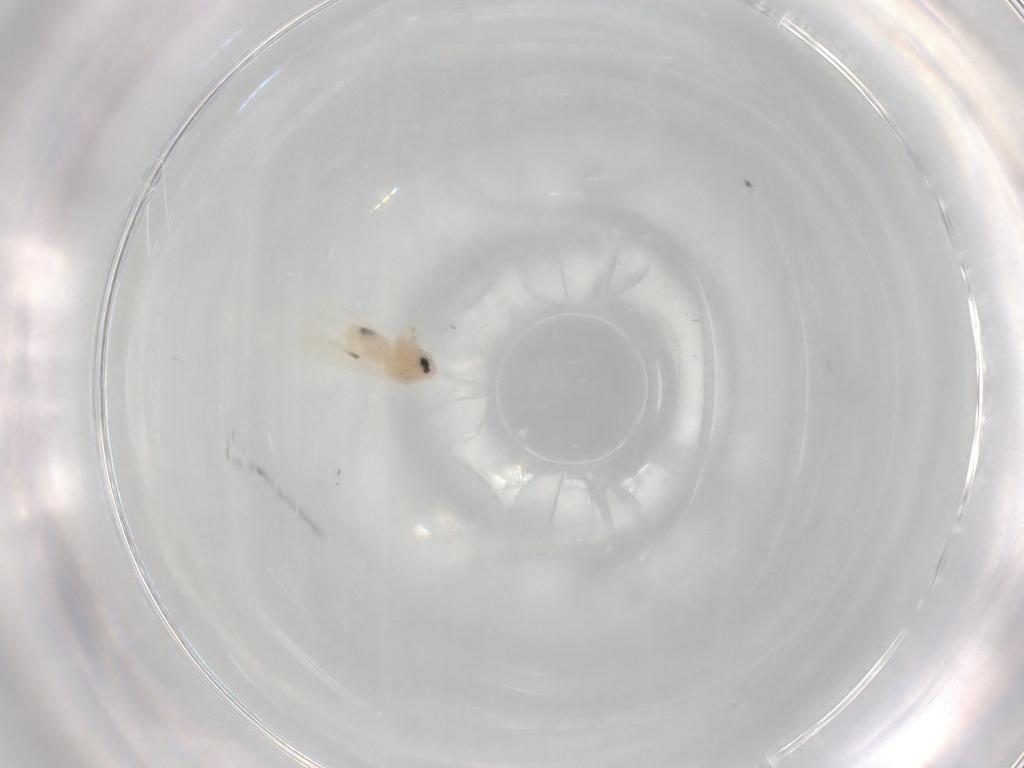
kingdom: Animalia
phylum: Arthropoda
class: Insecta
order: Hemiptera
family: Aleyrodidae
